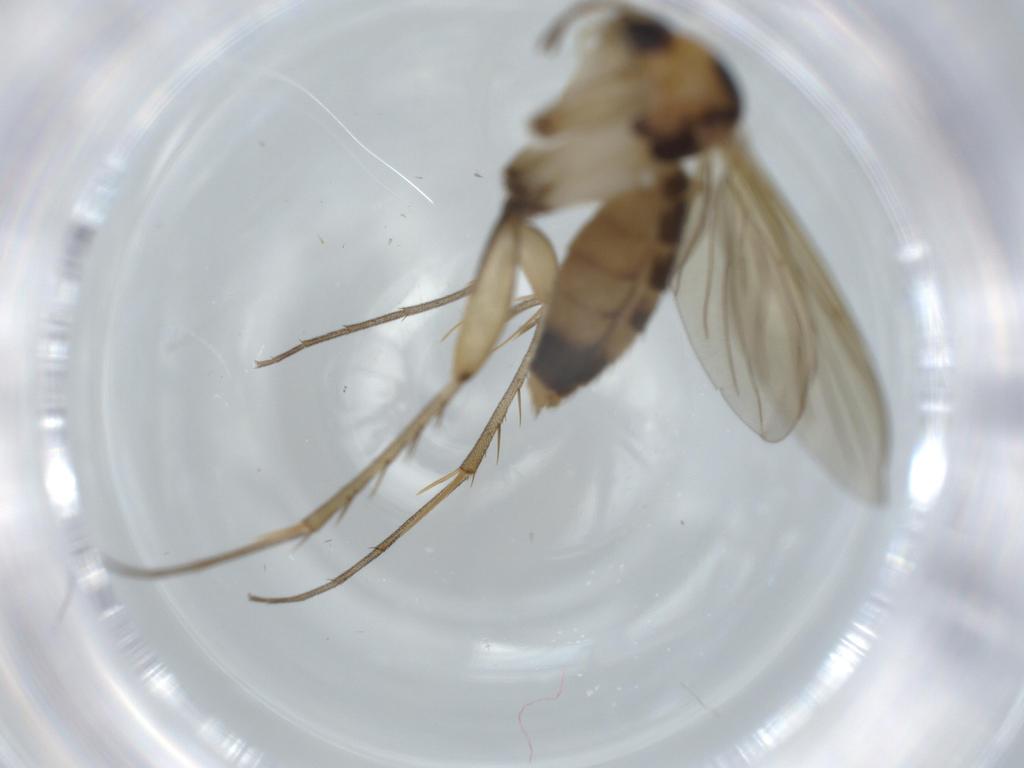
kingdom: Animalia
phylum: Arthropoda
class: Insecta
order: Diptera
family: Mycetophilidae
